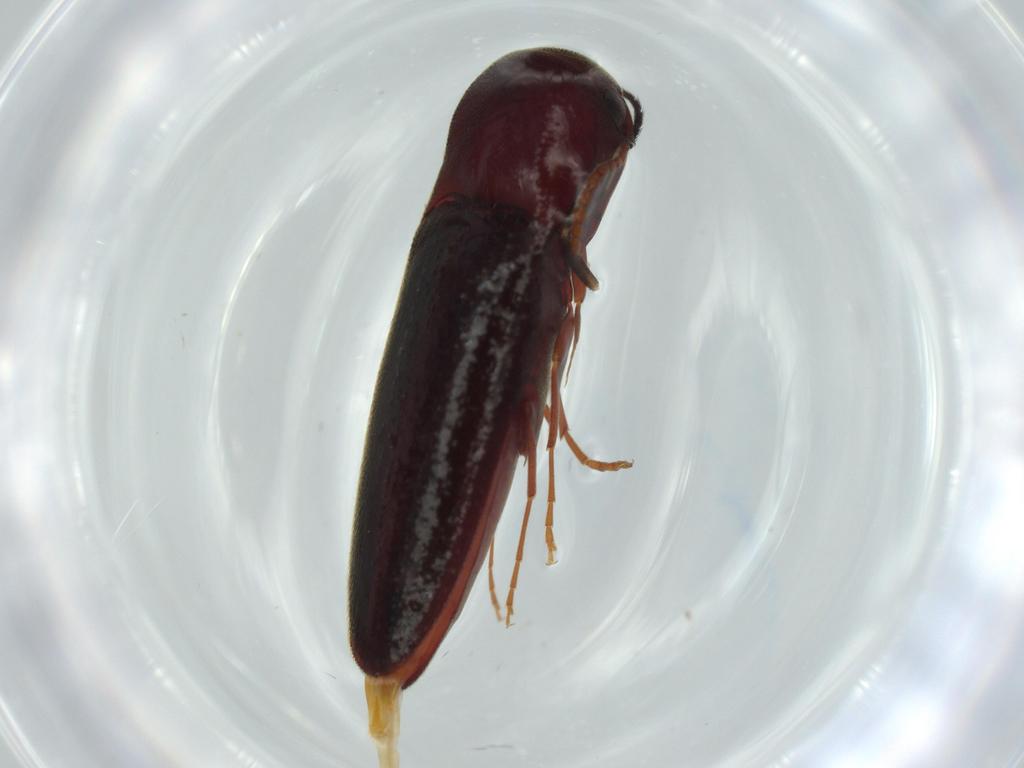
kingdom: Animalia
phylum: Arthropoda
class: Insecta
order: Coleoptera
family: Eucnemidae
